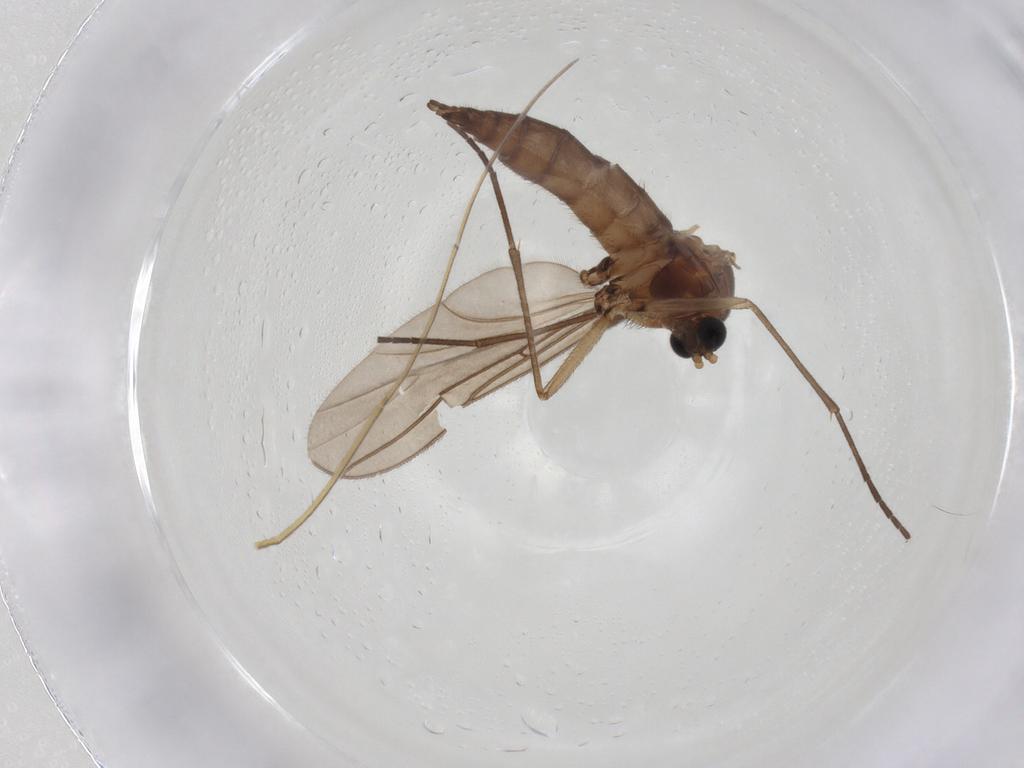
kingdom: Animalia
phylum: Arthropoda
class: Insecta
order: Diptera
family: Sciaridae
